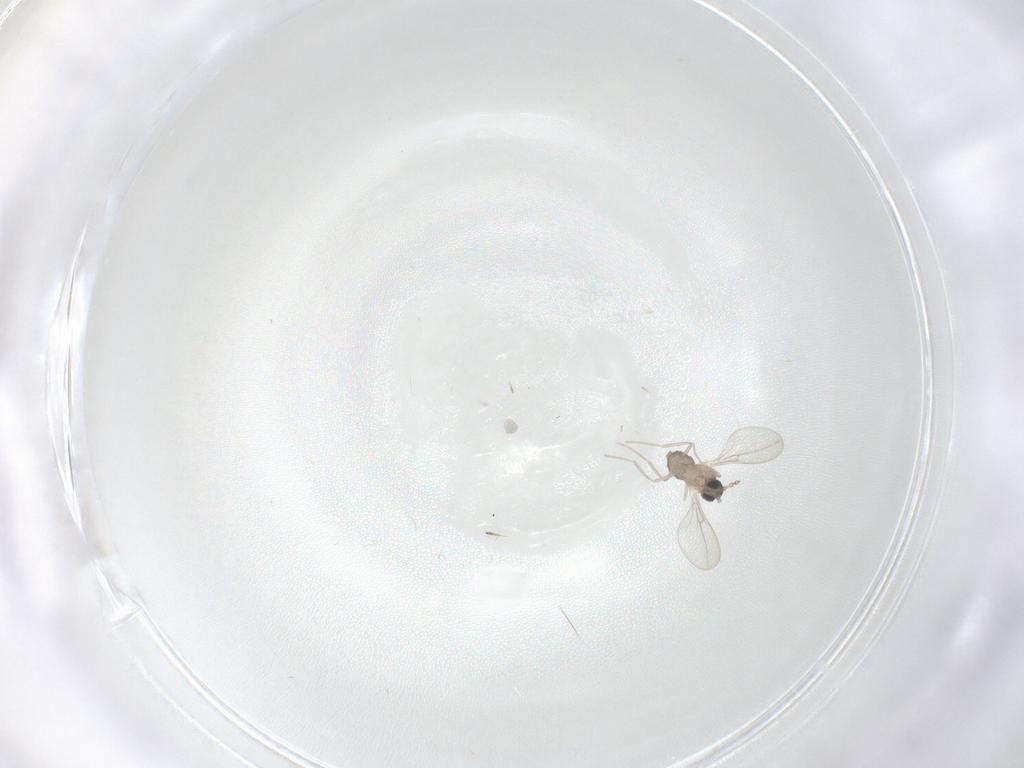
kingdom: Animalia
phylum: Arthropoda
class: Insecta
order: Diptera
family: Cecidomyiidae
